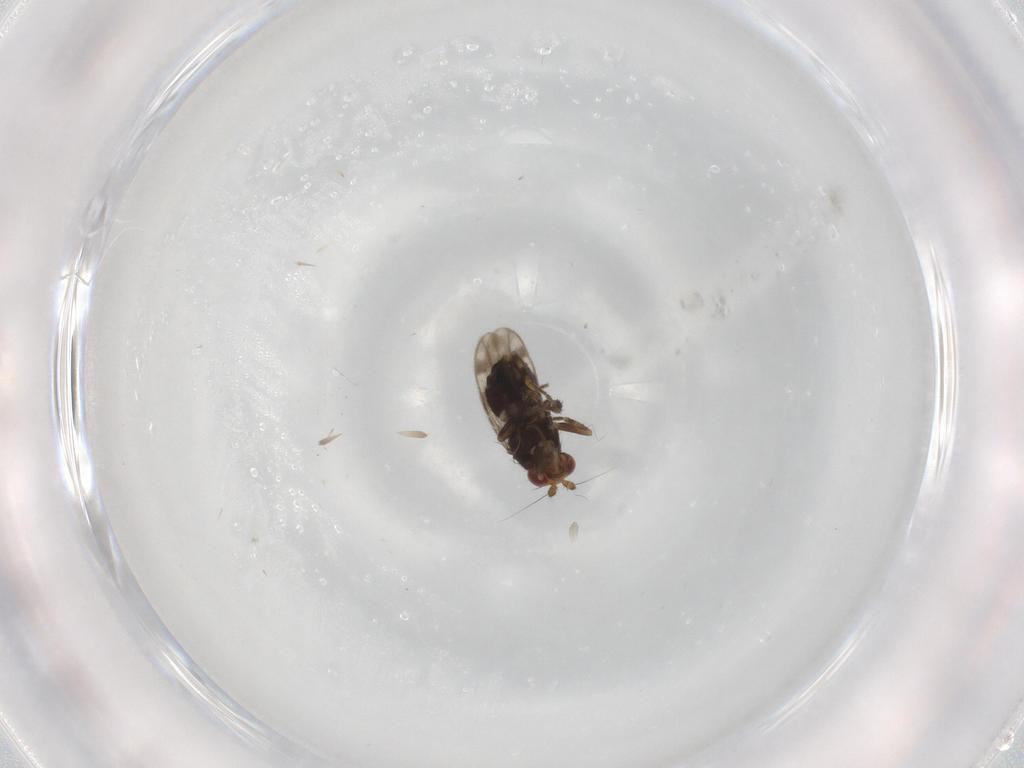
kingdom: Animalia
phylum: Arthropoda
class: Insecta
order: Diptera
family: Sphaeroceridae
